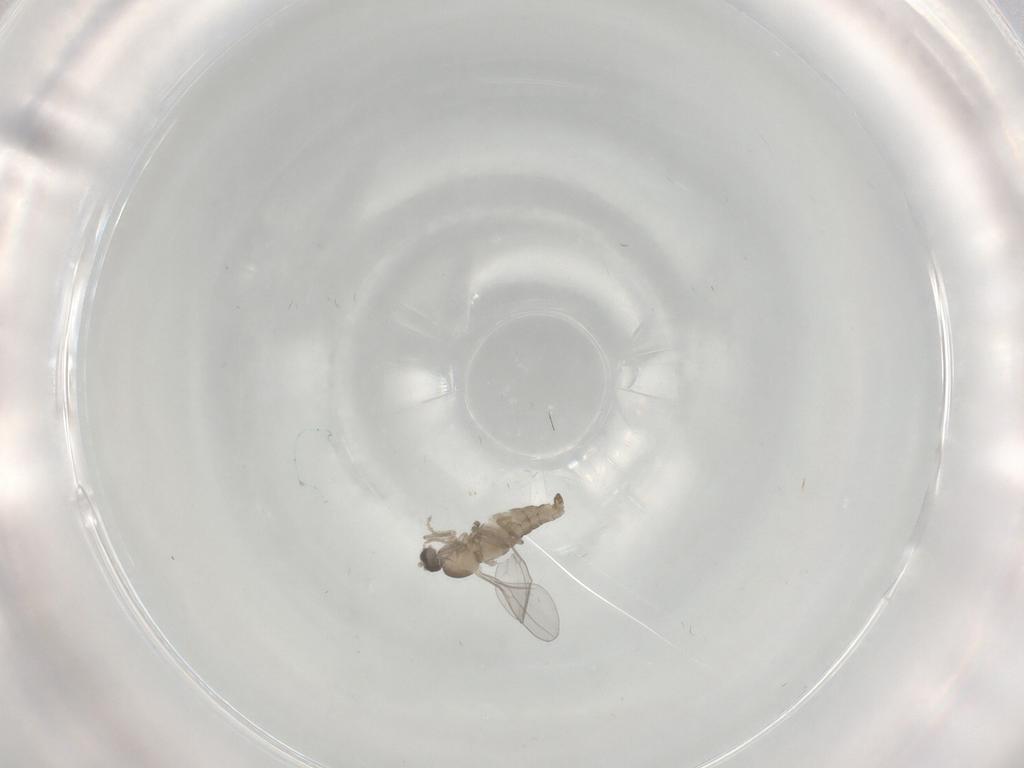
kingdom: Animalia
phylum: Arthropoda
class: Insecta
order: Diptera
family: Cecidomyiidae
